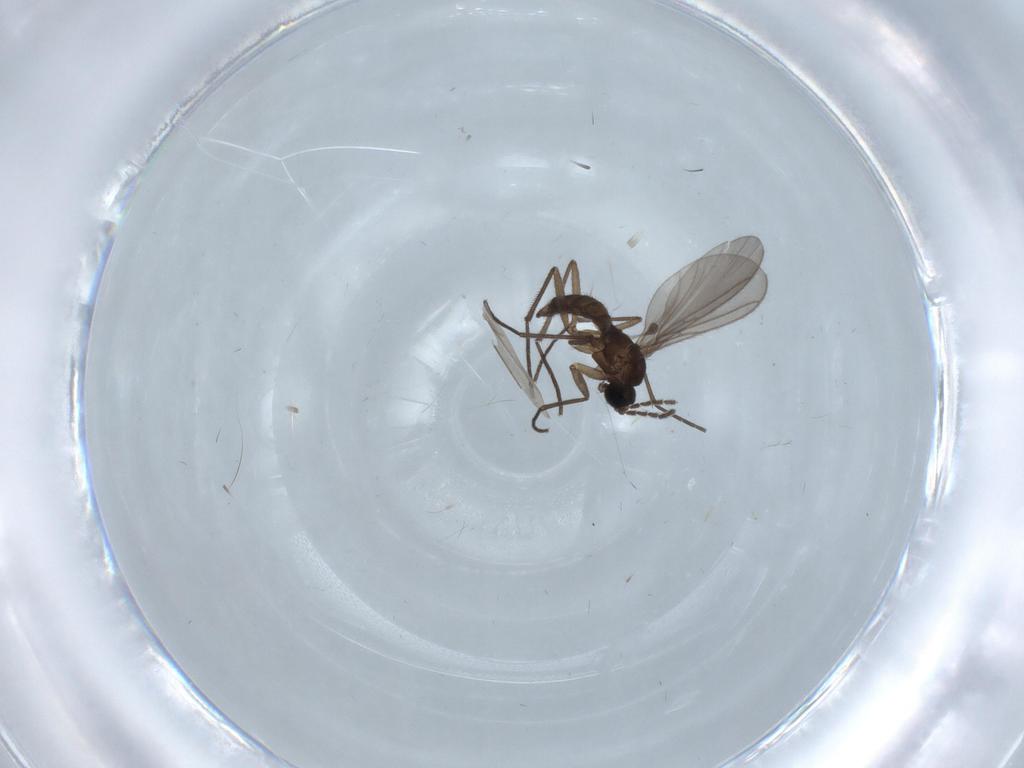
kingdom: Animalia
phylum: Arthropoda
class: Insecta
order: Diptera
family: Sciaridae
